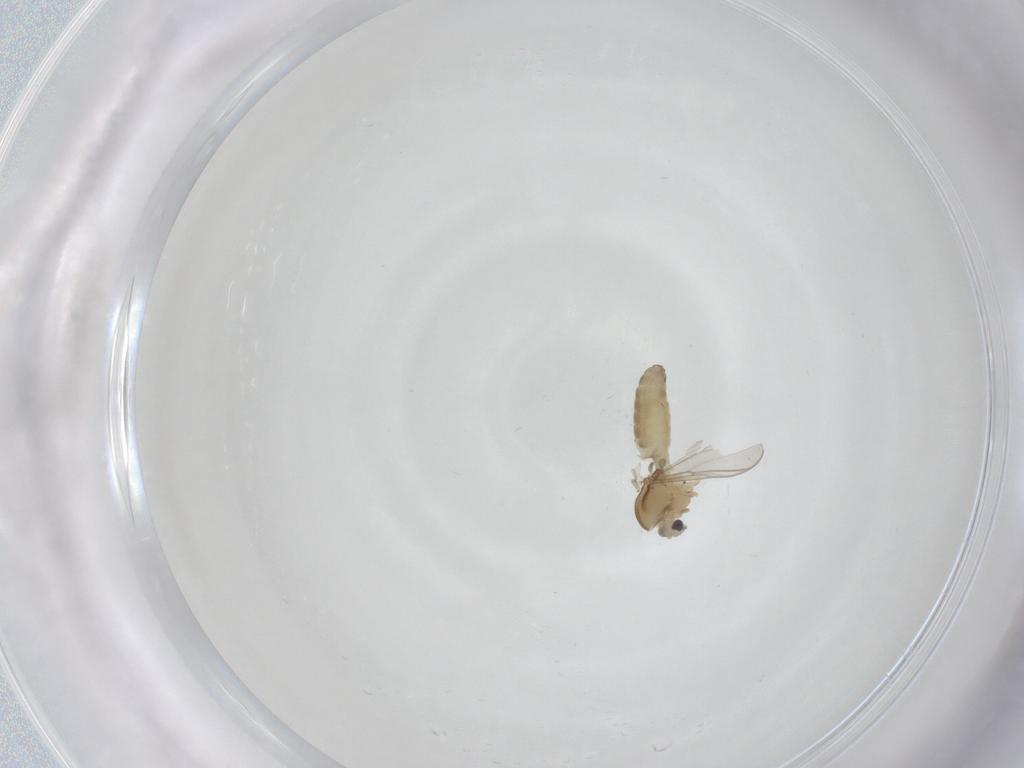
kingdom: Animalia
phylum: Arthropoda
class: Insecta
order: Diptera
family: Chironomidae
